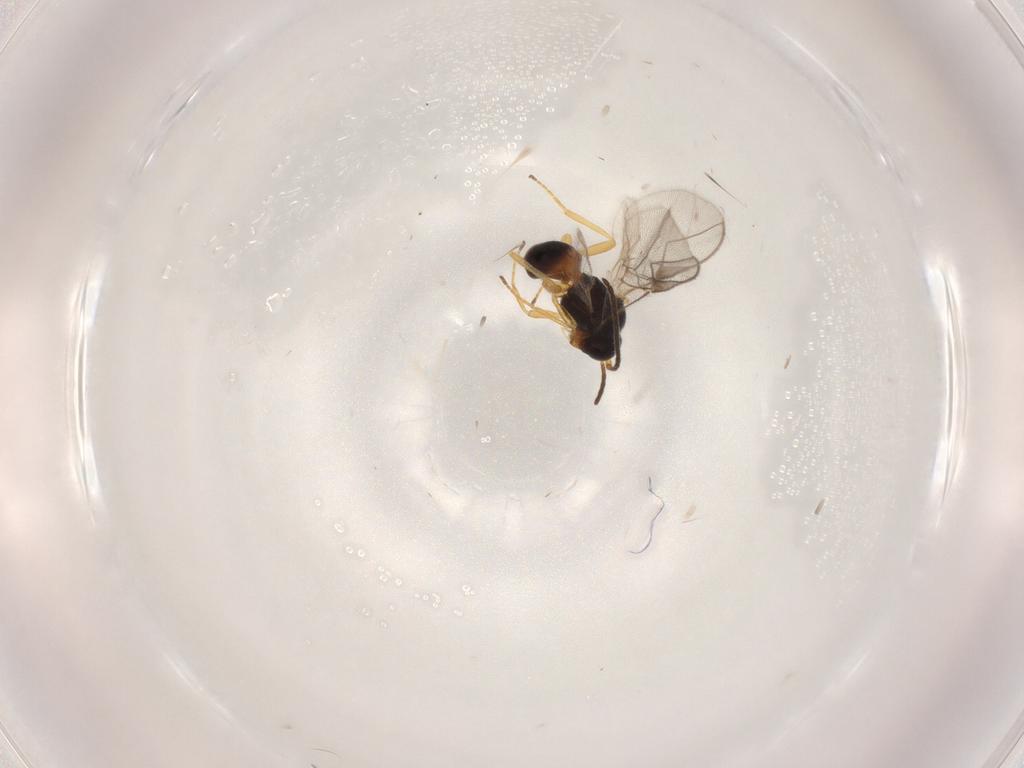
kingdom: Animalia
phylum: Arthropoda
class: Insecta
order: Hymenoptera
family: Braconidae
